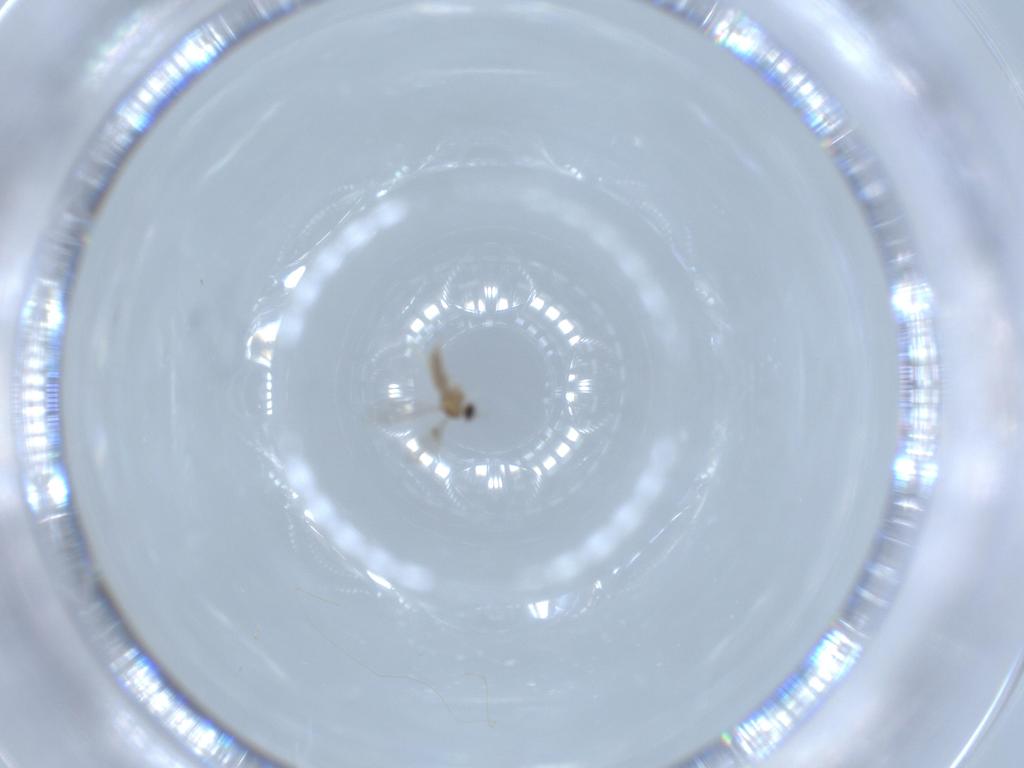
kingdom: Animalia
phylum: Arthropoda
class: Insecta
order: Diptera
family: Cecidomyiidae
